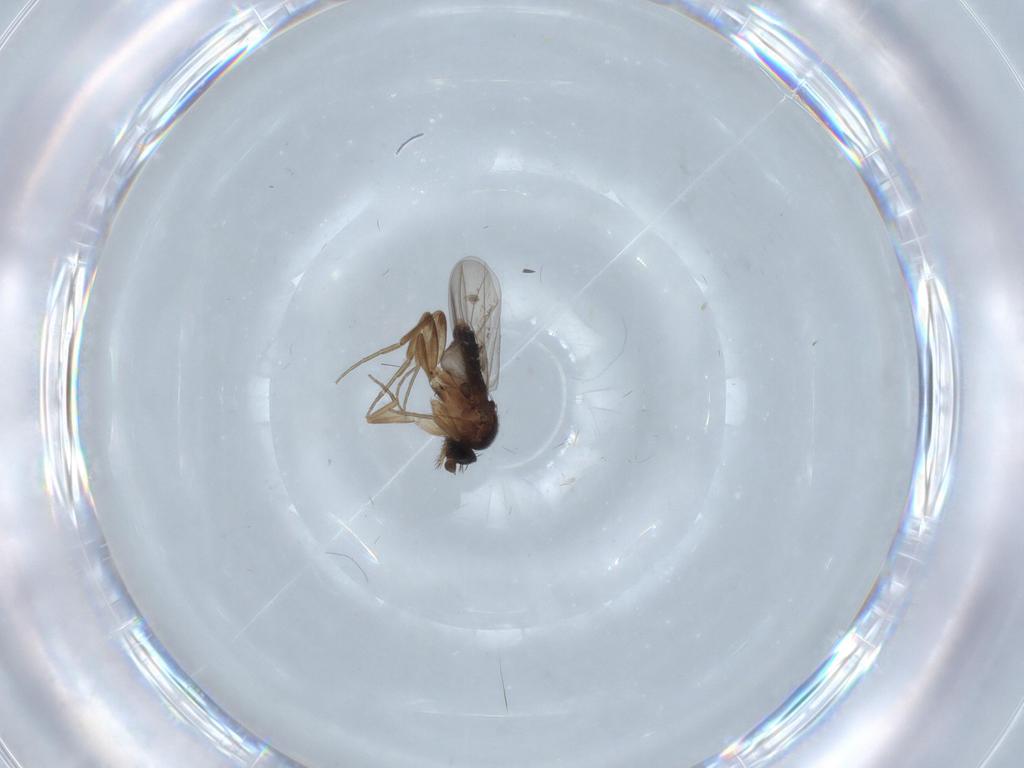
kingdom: Animalia
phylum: Arthropoda
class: Insecta
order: Diptera
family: Phoridae
